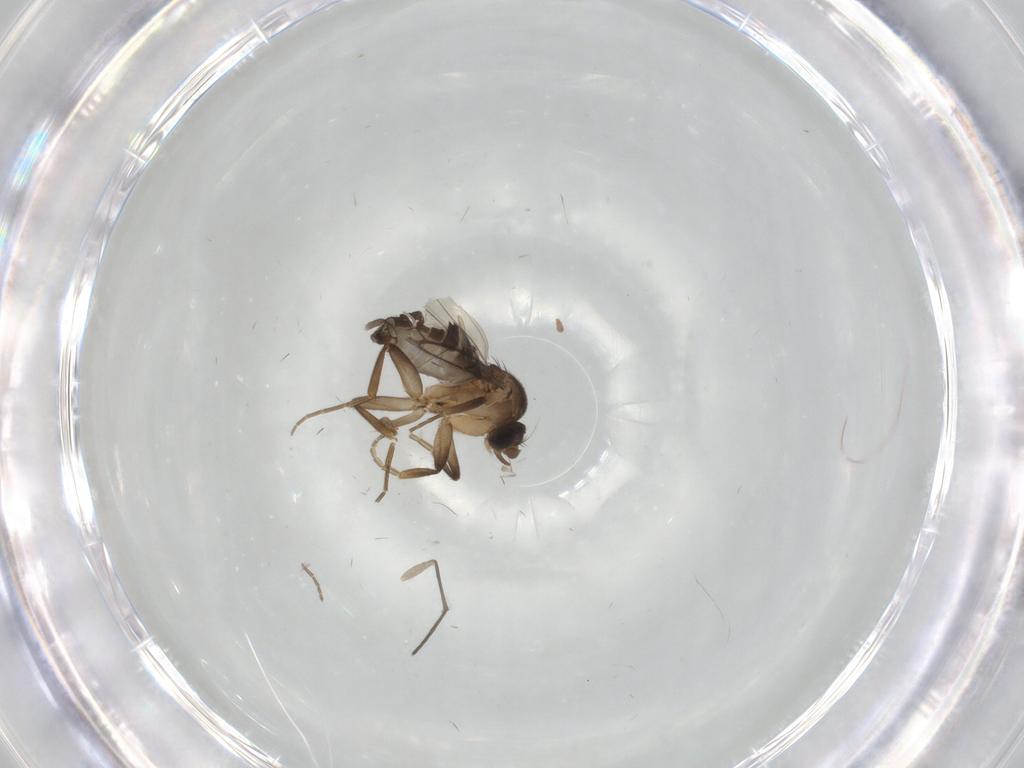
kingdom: Animalia
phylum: Arthropoda
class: Insecta
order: Diptera
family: Phoridae
